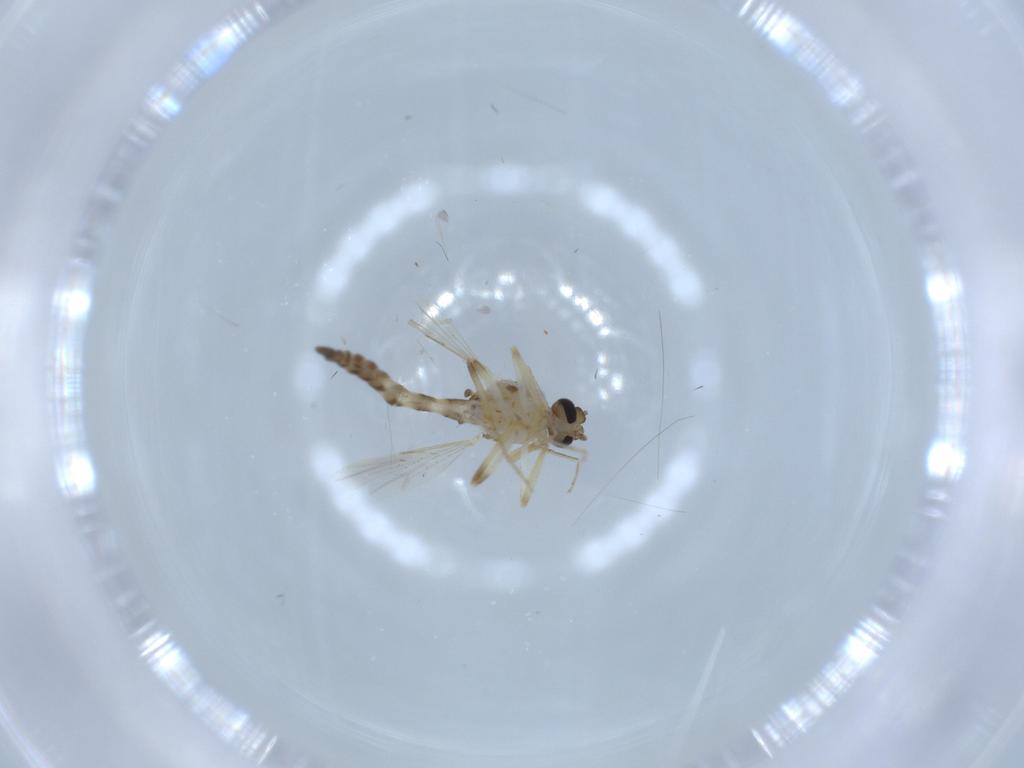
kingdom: Animalia
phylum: Arthropoda
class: Insecta
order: Diptera
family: Ceratopogonidae
